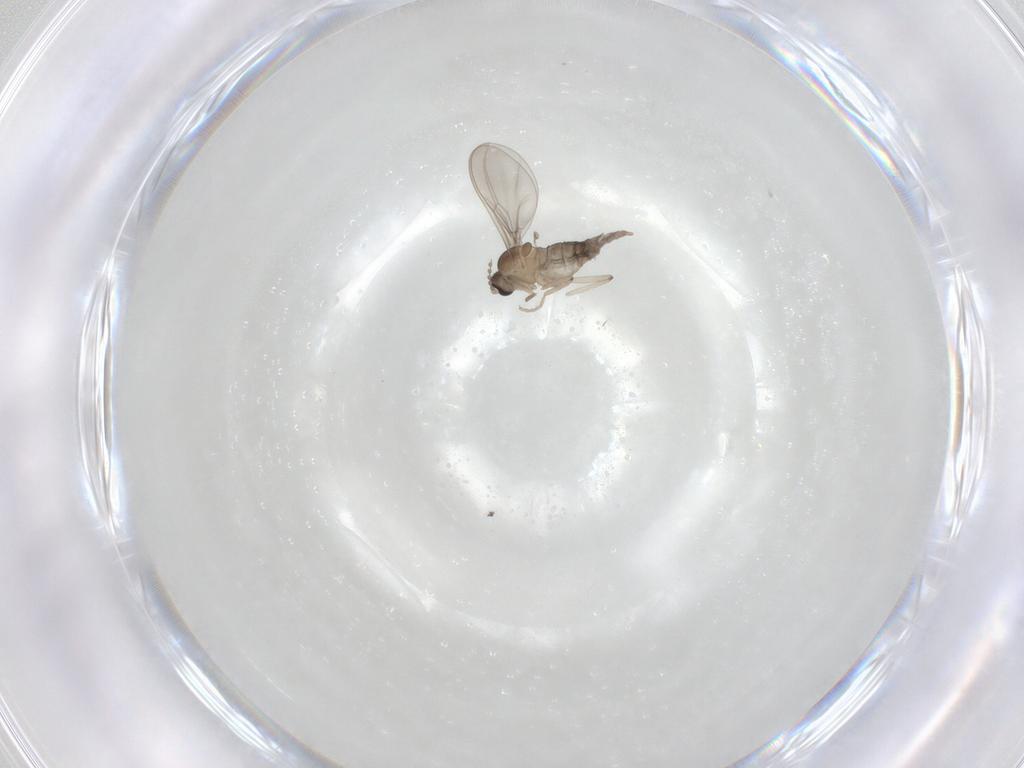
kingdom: Animalia
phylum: Arthropoda
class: Insecta
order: Diptera
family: Cecidomyiidae
